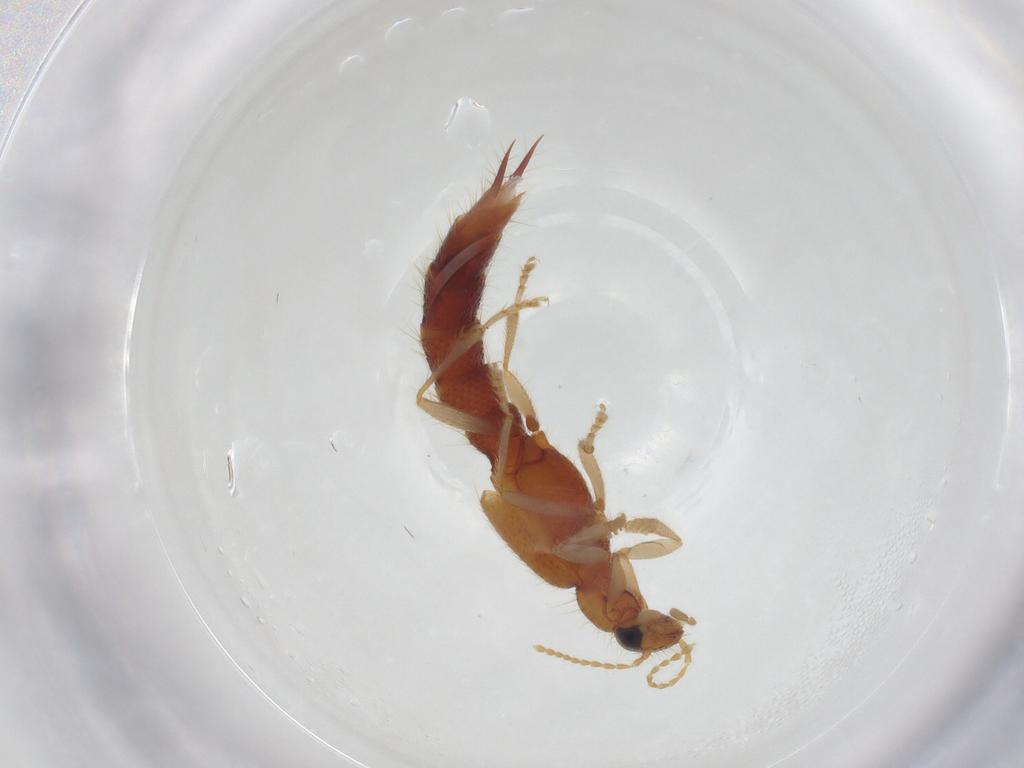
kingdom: Animalia
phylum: Arthropoda
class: Insecta
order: Coleoptera
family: Staphylinidae
